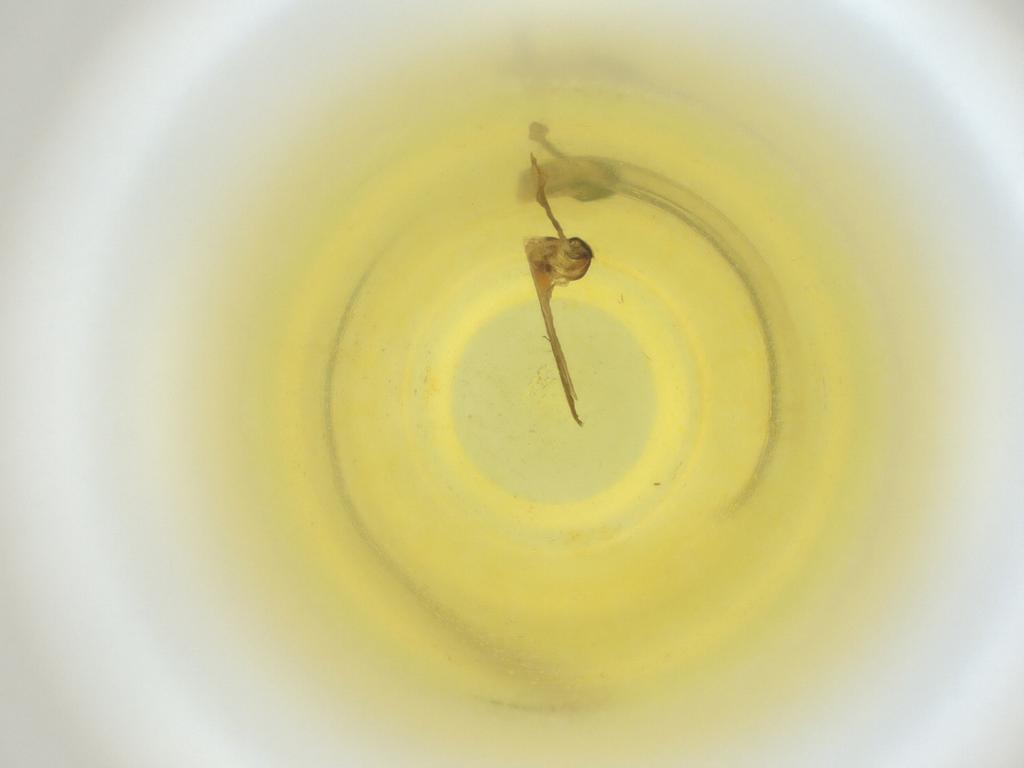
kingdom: Animalia
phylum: Arthropoda
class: Insecta
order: Diptera
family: Cecidomyiidae
